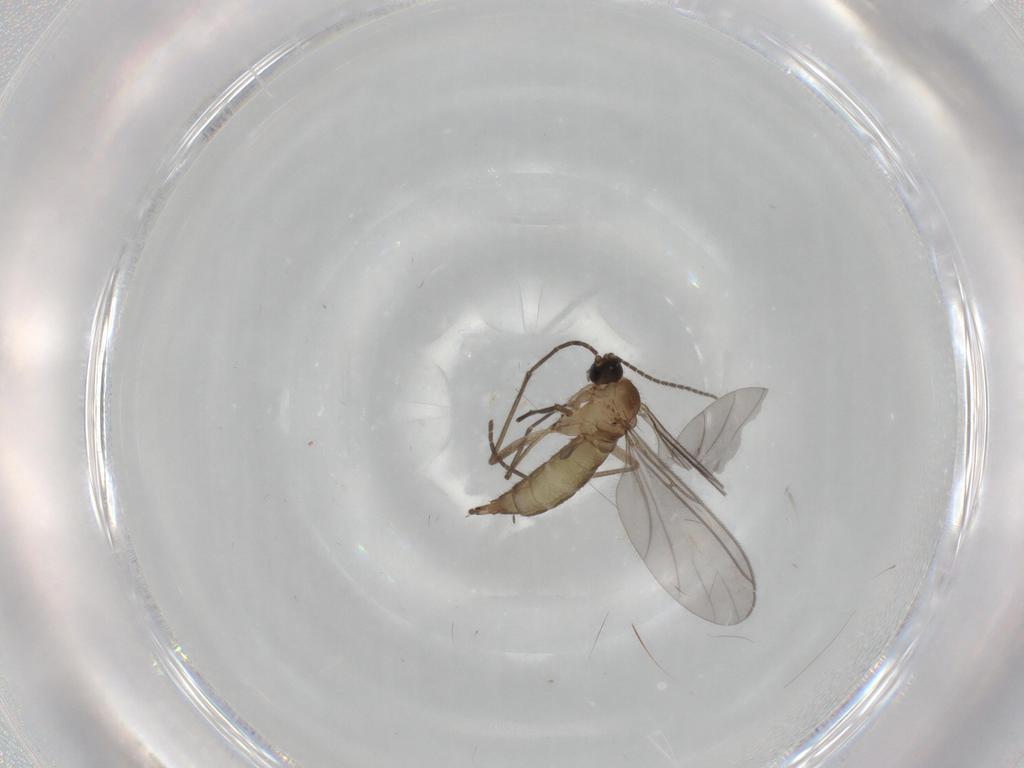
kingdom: Animalia
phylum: Arthropoda
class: Insecta
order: Diptera
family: Sciaridae
